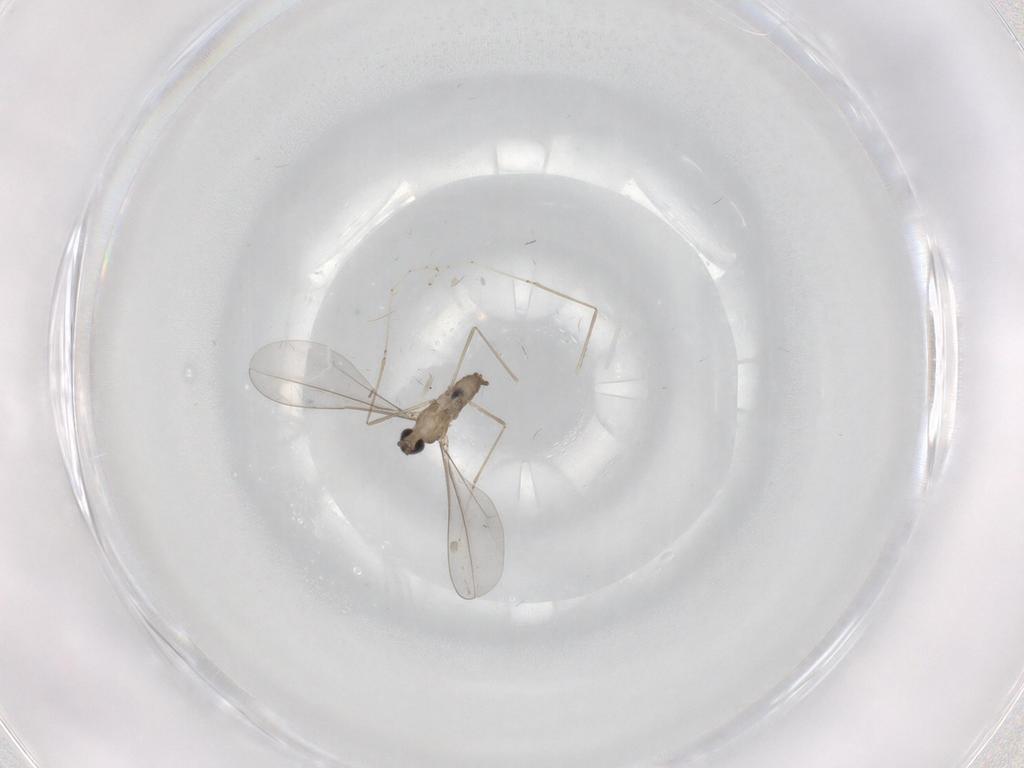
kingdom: Animalia
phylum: Arthropoda
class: Insecta
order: Diptera
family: Cecidomyiidae
